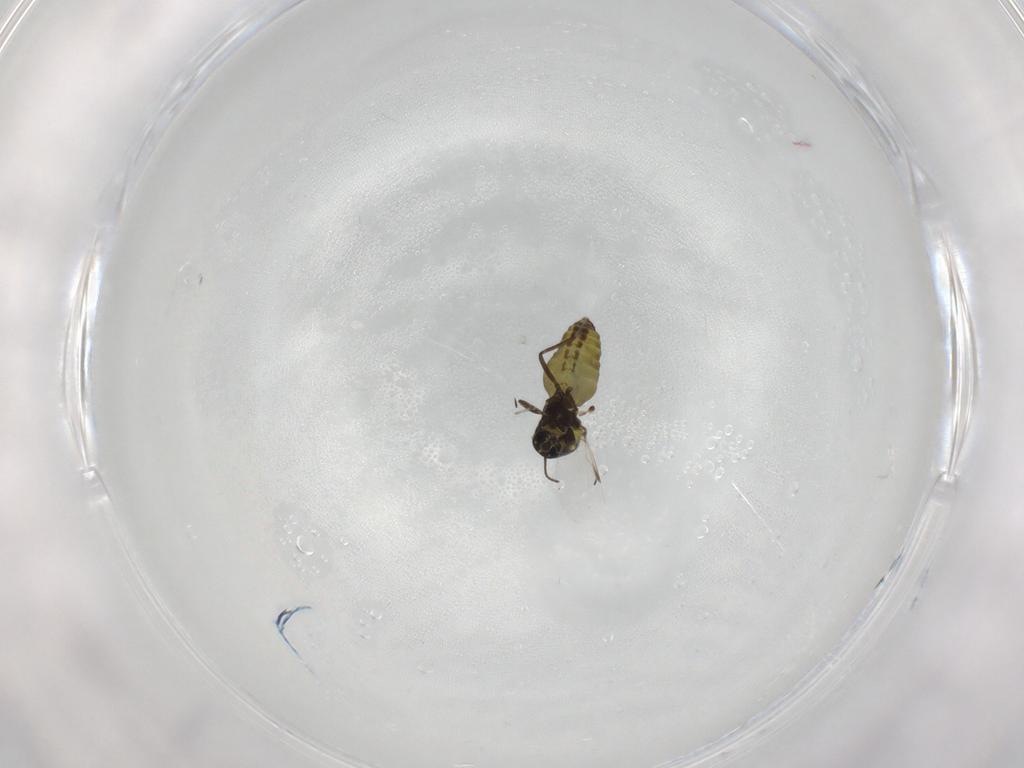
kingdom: Animalia
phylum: Arthropoda
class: Insecta
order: Diptera
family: Ceratopogonidae
